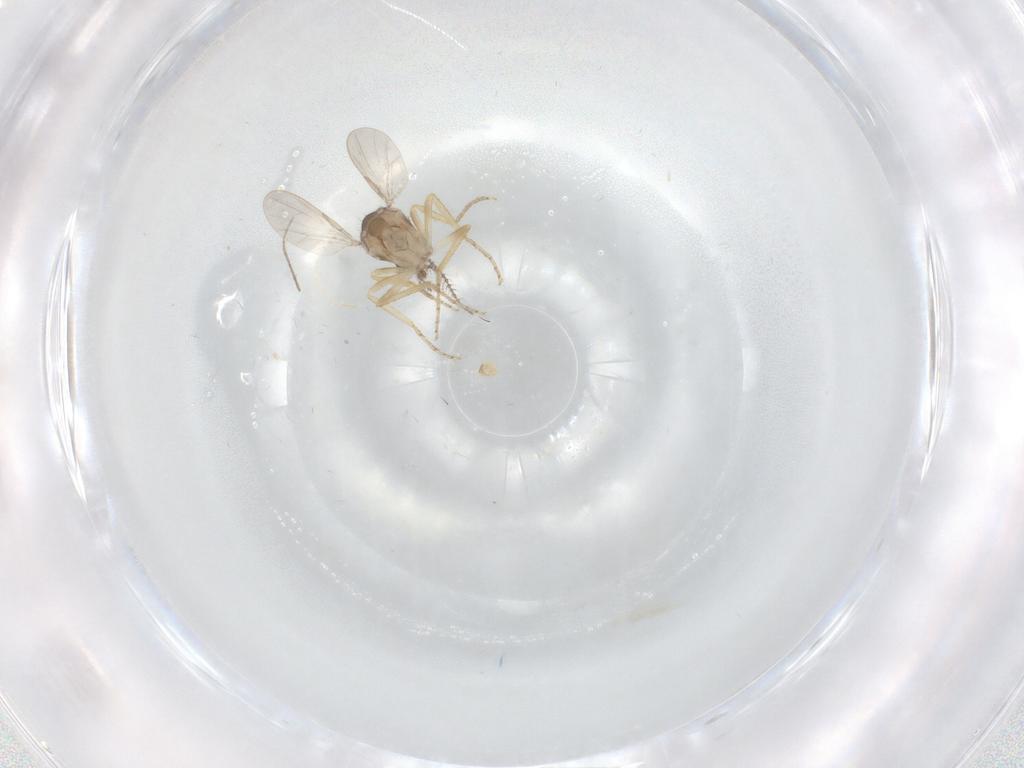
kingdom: Animalia
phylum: Arthropoda
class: Insecta
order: Diptera
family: Ceratopogonidae
